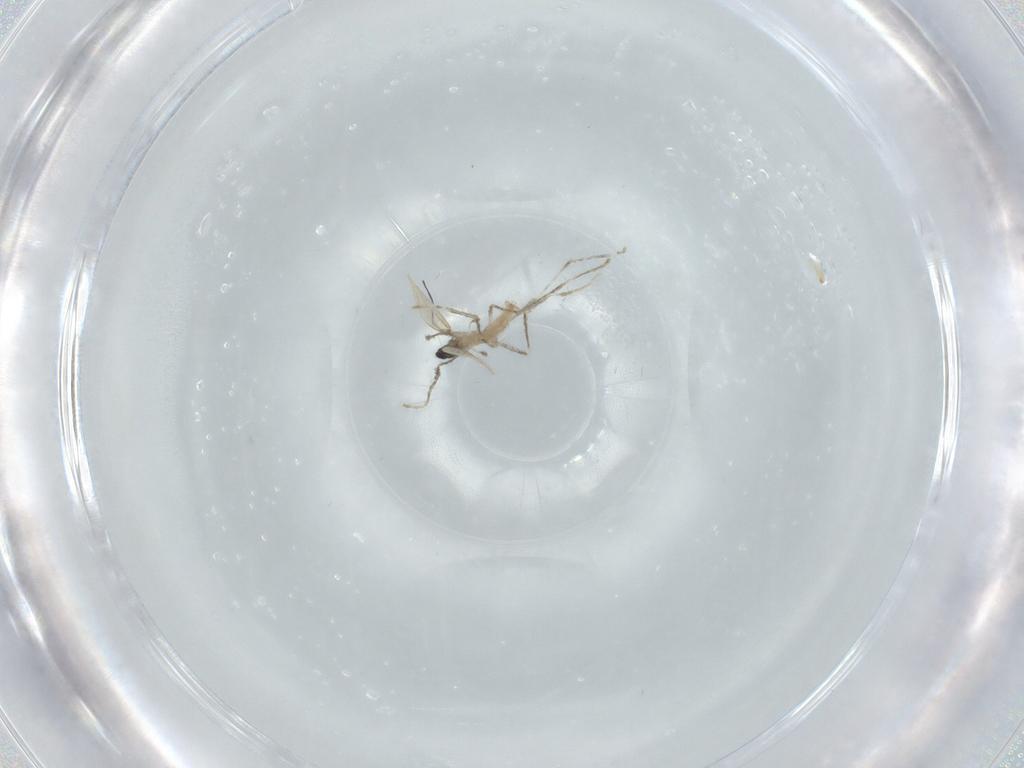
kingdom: Animalia
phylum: Arthropoda
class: Insecta
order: Diptera
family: Cecidomyiidae
